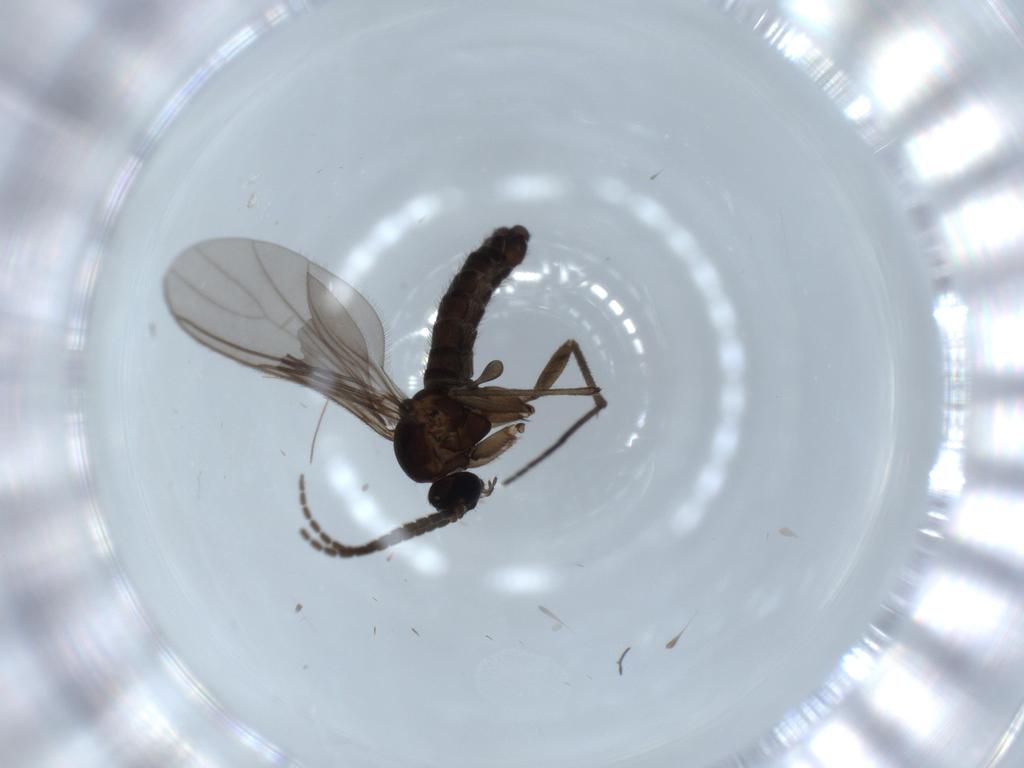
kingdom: Animalia
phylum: Arthropoda
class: Insecta
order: Diptera
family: Sciaridae
